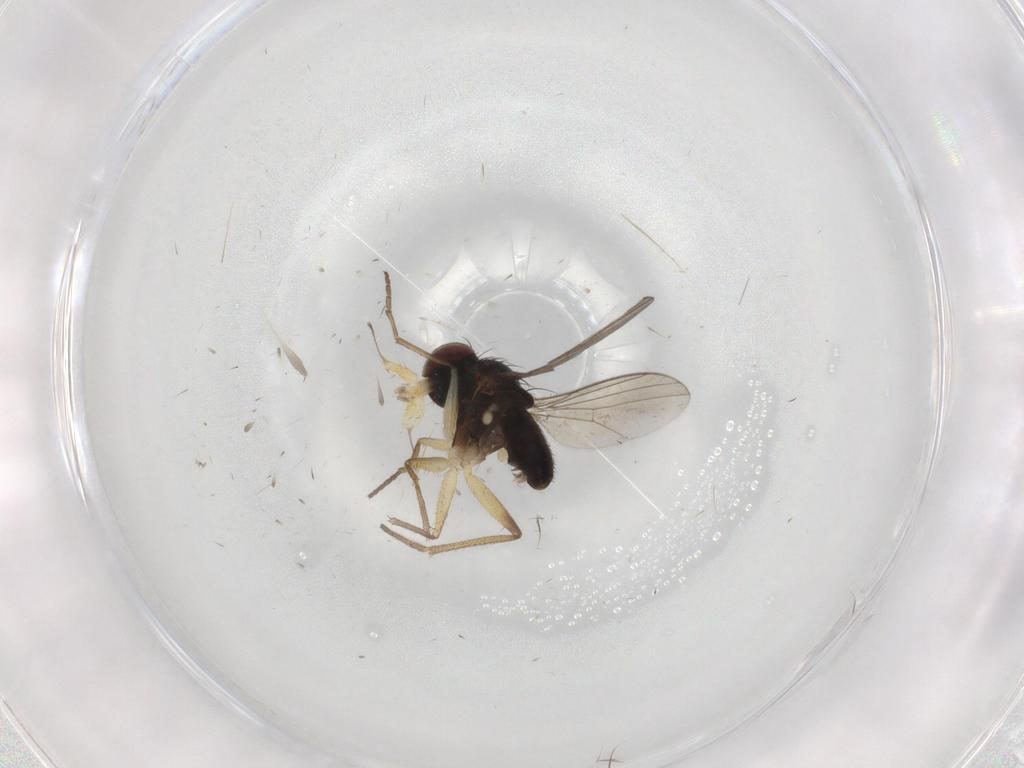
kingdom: Animalia
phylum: Arthropoda
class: Insecta
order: Diptera
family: Dolichopodidae
